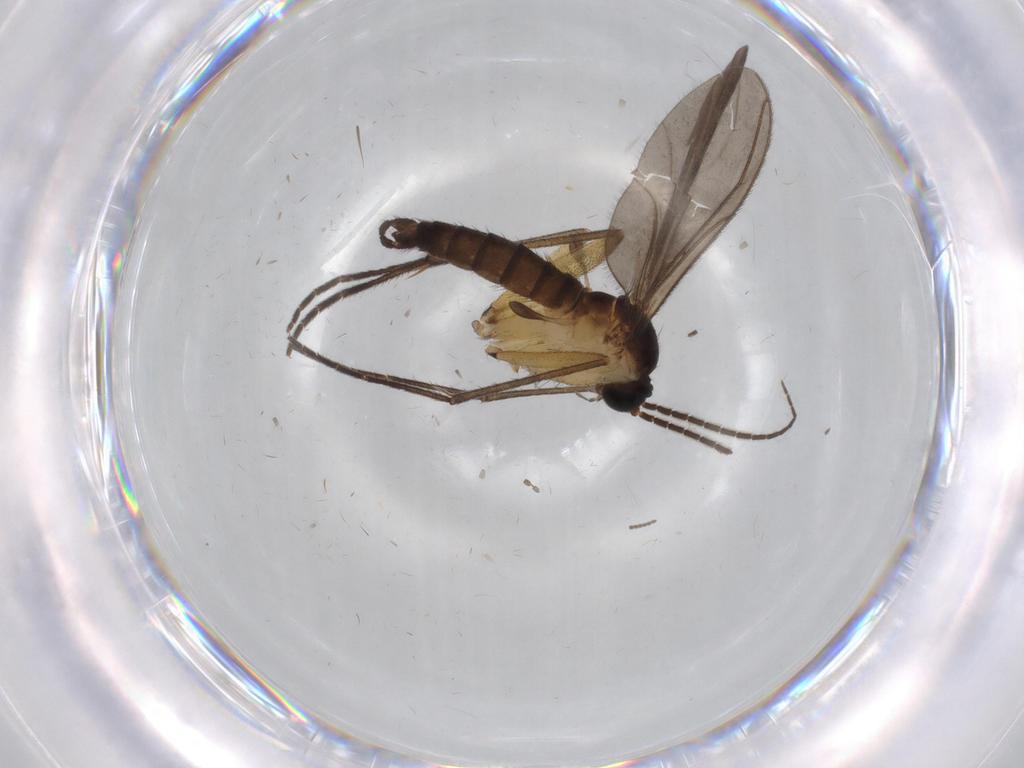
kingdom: Animalia
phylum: Arthropoda
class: Insecta
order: Diptera
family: Sciaridae
